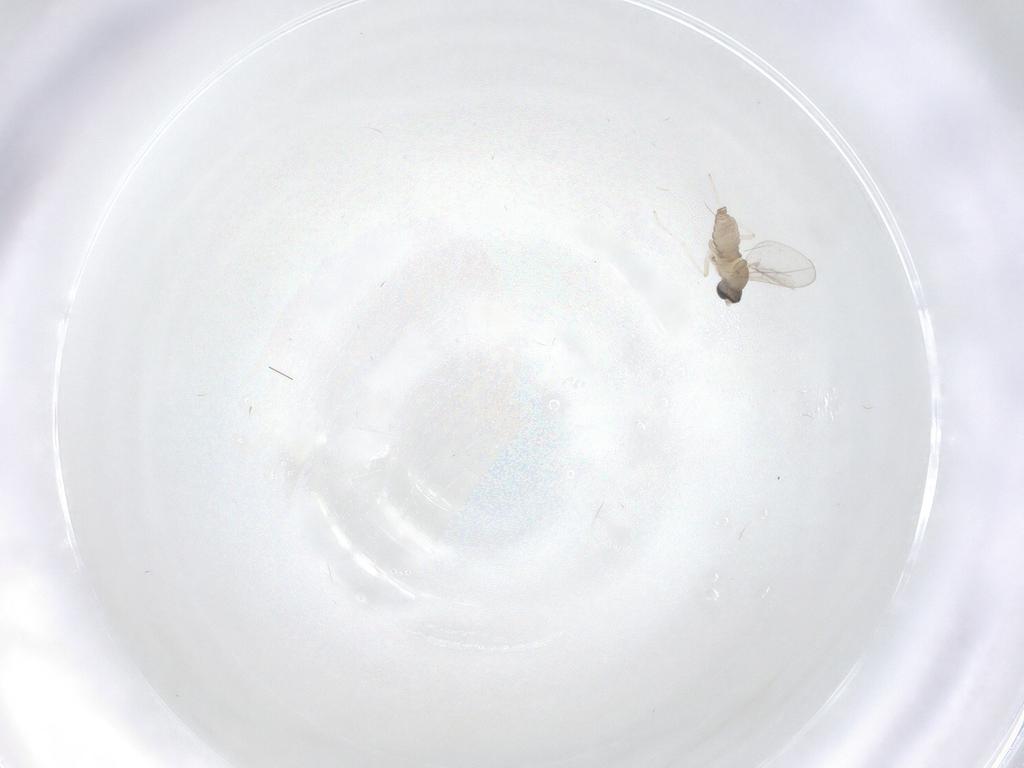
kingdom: Animalia
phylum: Arthropoda
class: Insecta
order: Diptera
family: Cecidomyiidae
